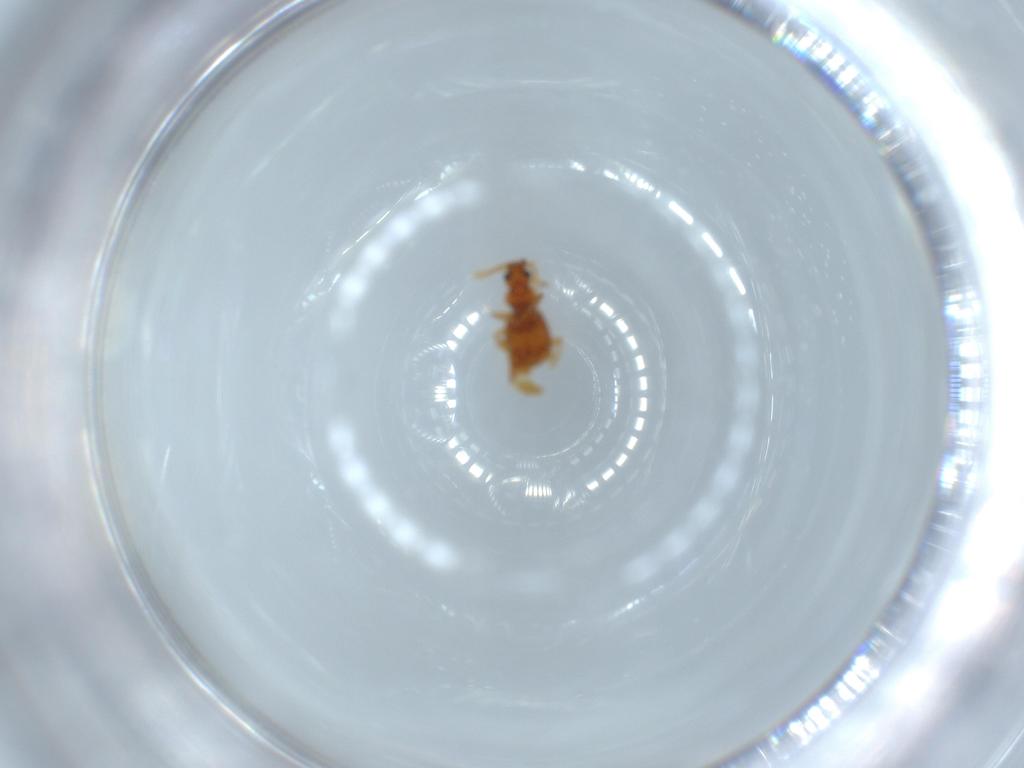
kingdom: Animalia
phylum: Arthropoda
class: Insecta
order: Coleoptera
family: Staphylinidae
